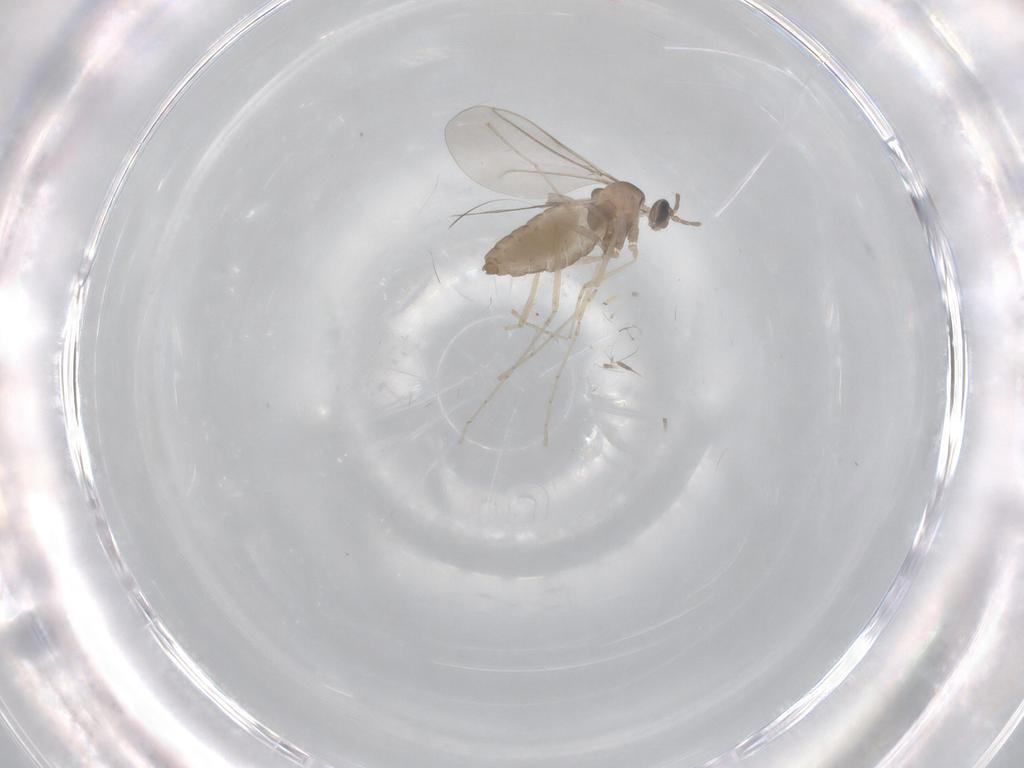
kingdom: Animalia
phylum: Arthropoda
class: Insecta
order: Diptera
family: Cecidomyiidae
